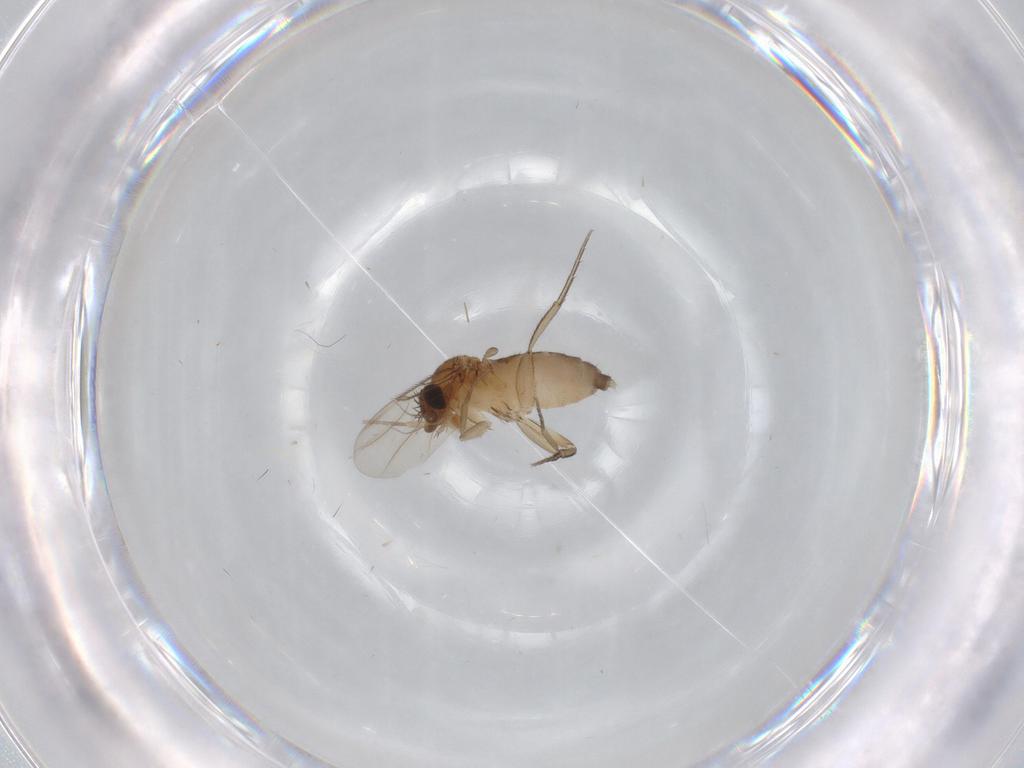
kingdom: Animalia
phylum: Arthropoda
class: Insecta
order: Diptera
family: Phoridae
